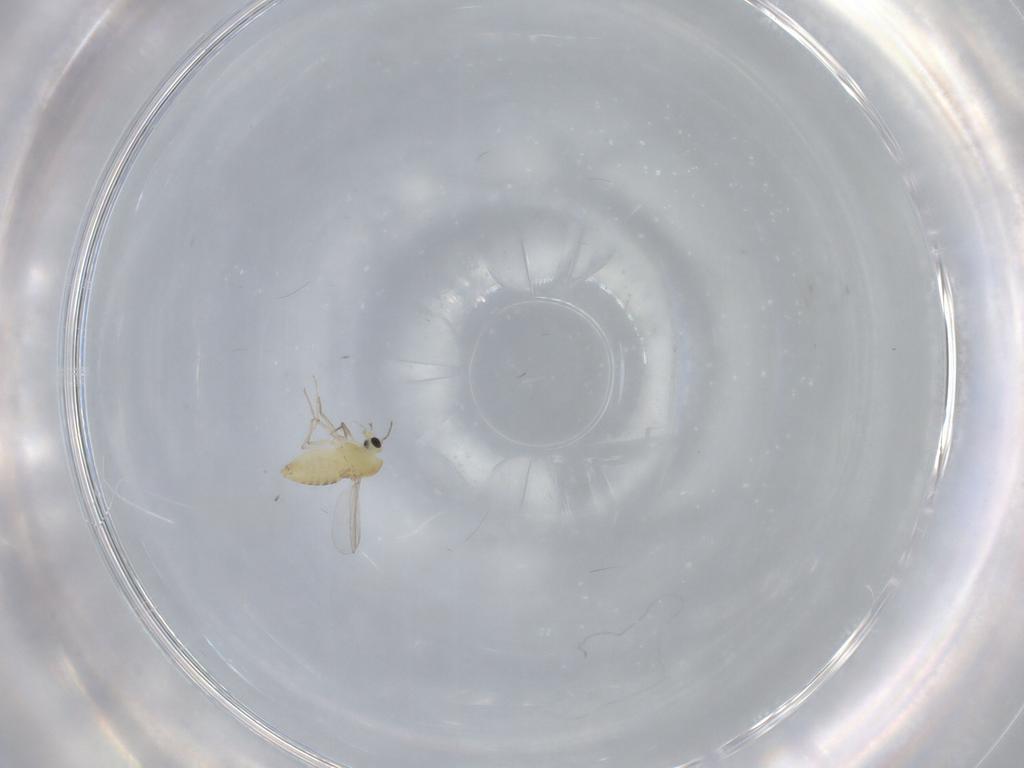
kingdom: Animalia
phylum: Arthropoda
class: Insecta
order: Diptera
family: Chironomidae
